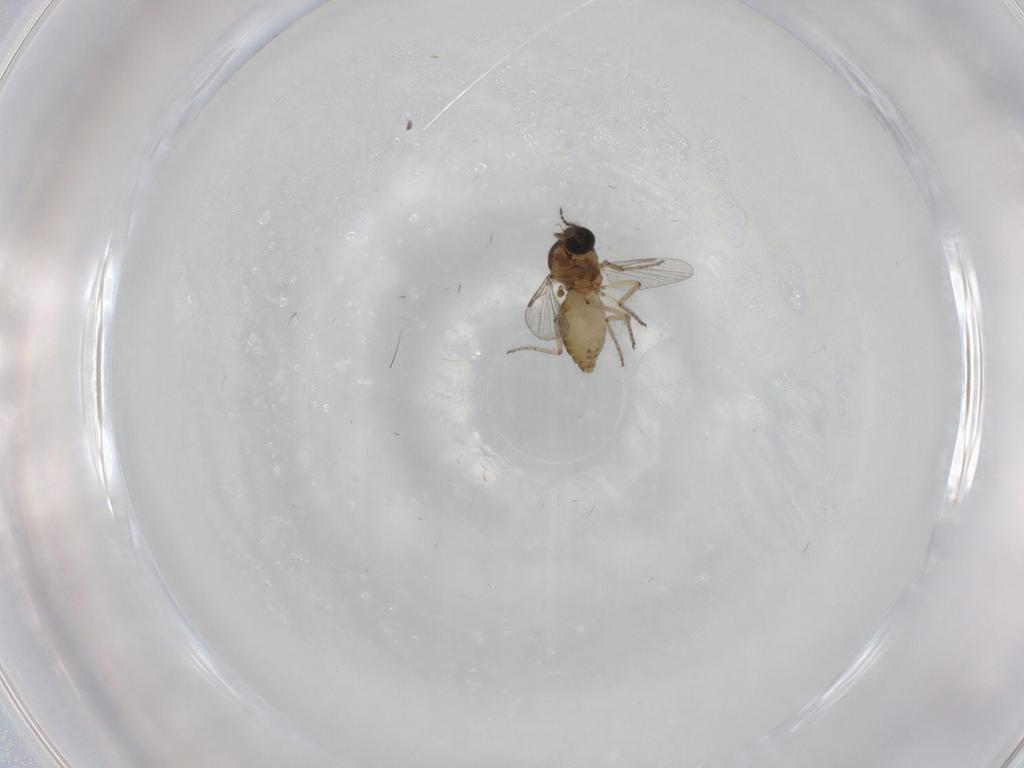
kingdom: Animalia
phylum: Arthropoda
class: Insecta
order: Diptera
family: Ceratopogonidae
